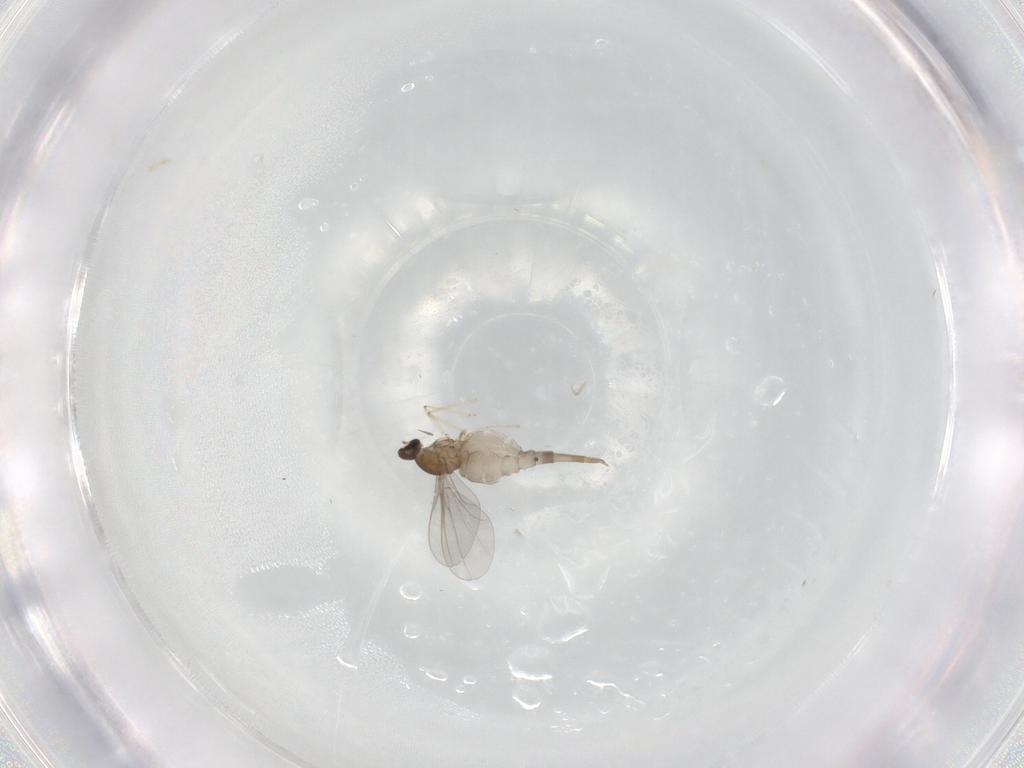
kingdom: Animalia
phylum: Arthropoda
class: Insecta
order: Diptera
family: Cecidomyiidae
